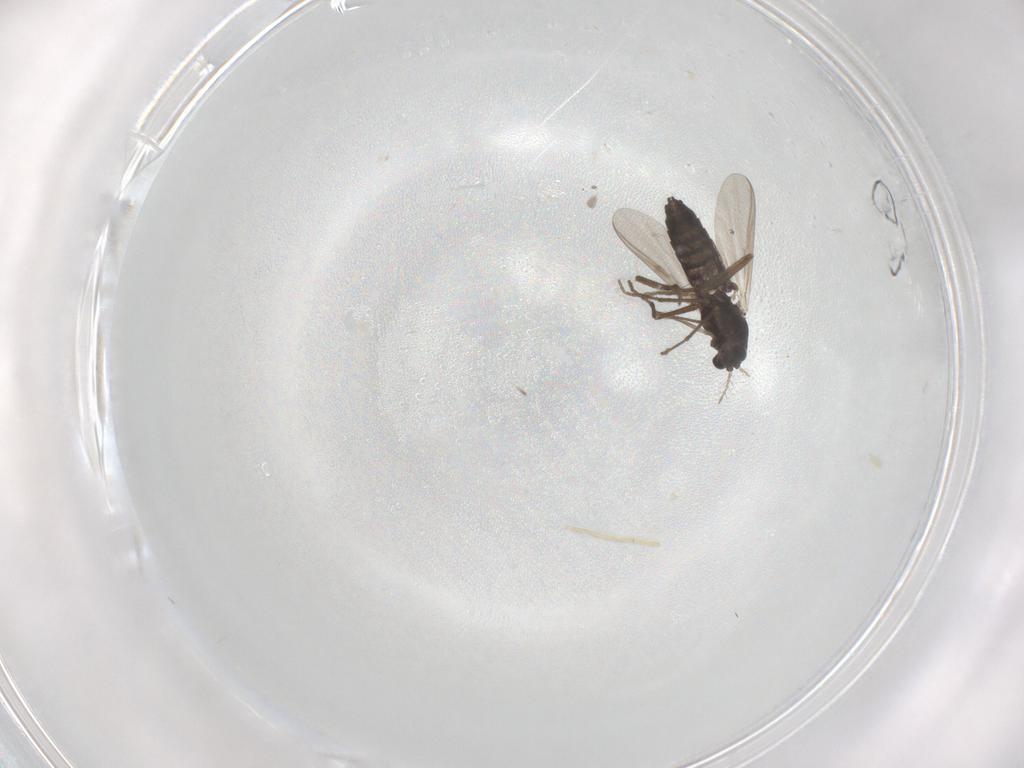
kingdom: Animalia
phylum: Arthropoda
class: Insecta
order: Diptera
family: Chironomidae
